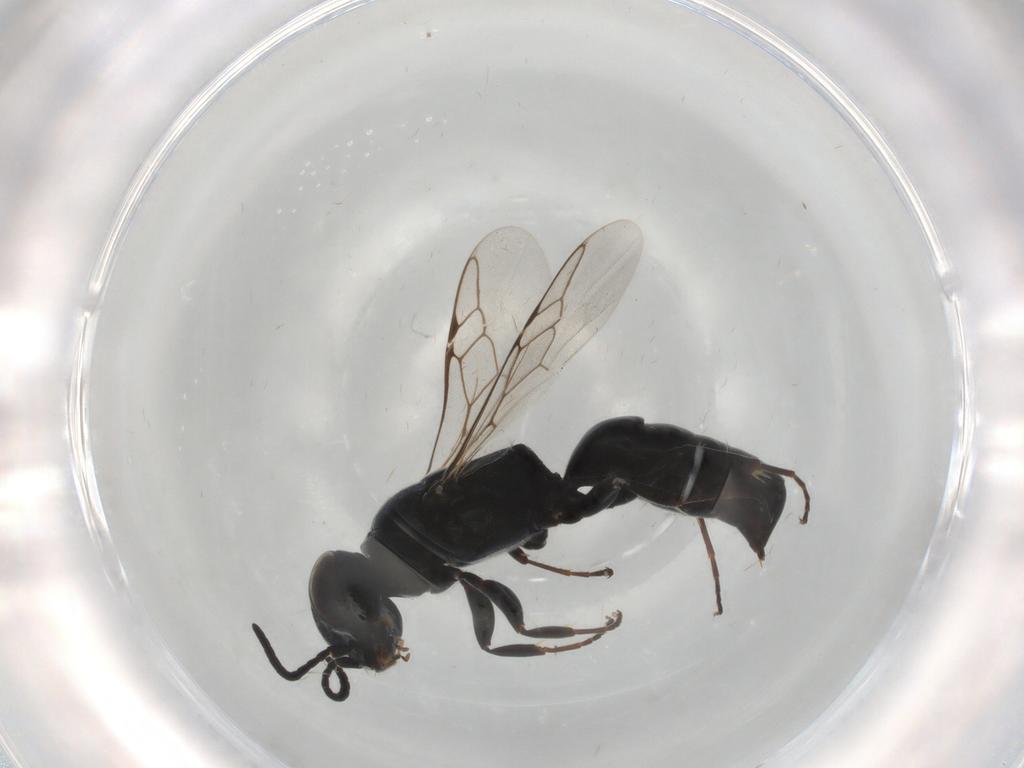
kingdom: Animalia
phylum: Arthropoda
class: Insecta
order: Hymenoptera
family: Crabronidae
